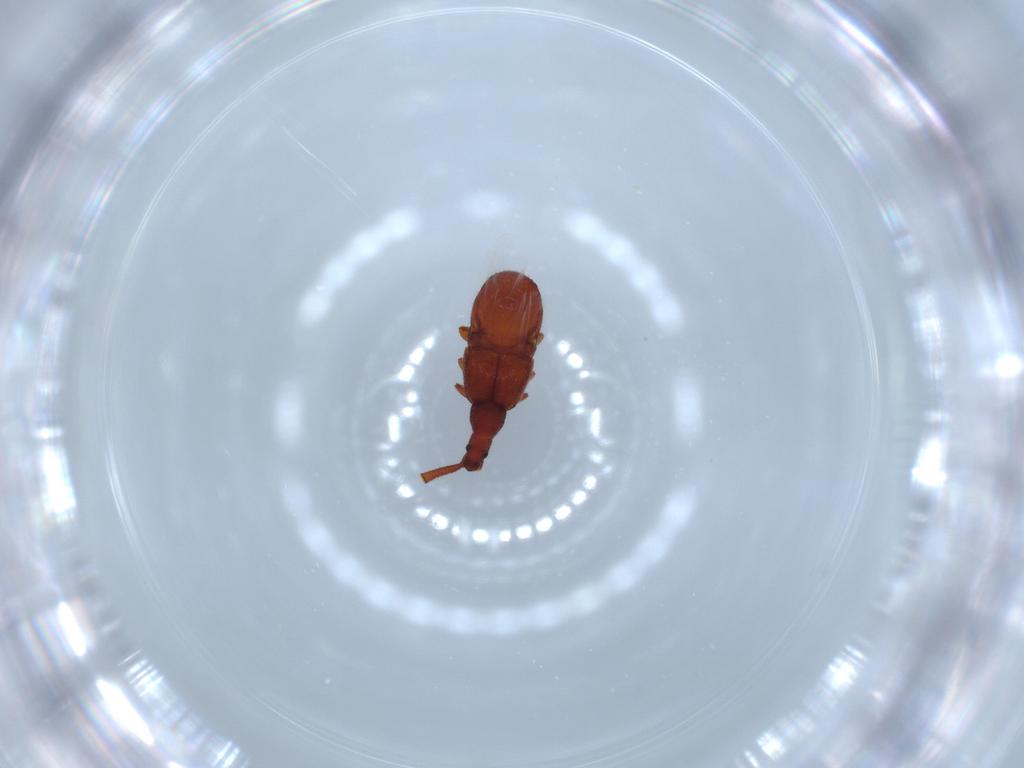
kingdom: Animalia
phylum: Arthropoda
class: Insecta
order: Coleoptera
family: Staphylinidae
